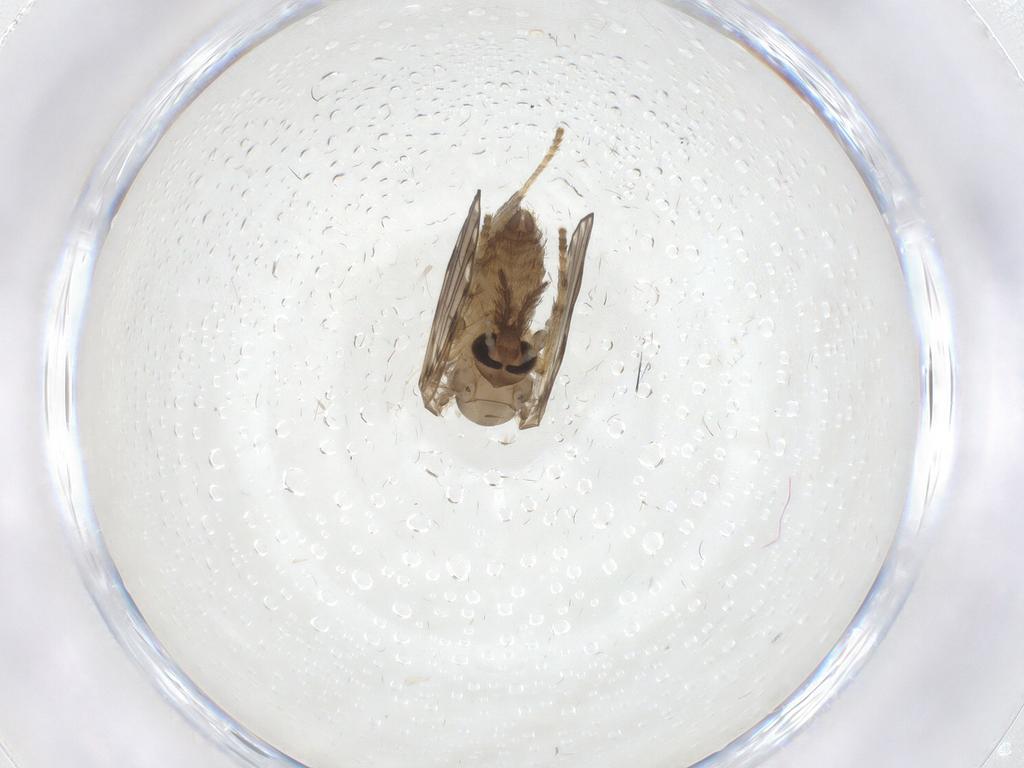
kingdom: Animalia
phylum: Arthropoda
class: Insecta
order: Diptera
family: Psychodidae
